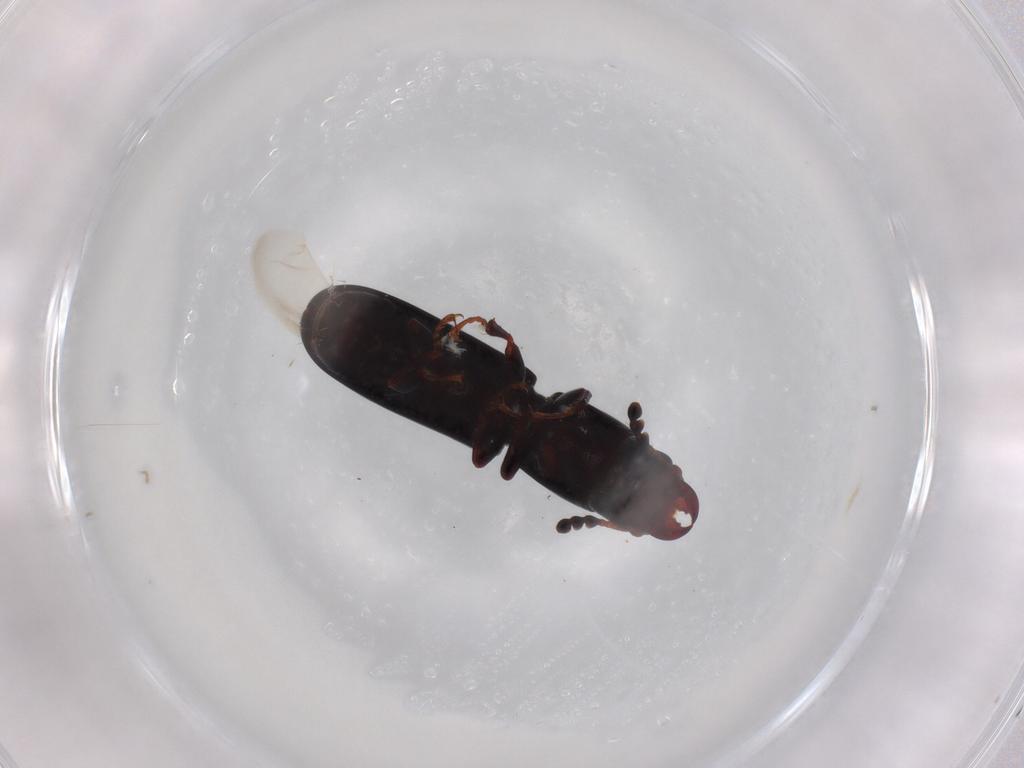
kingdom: Animalia
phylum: Arthropoda
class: Insecta
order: Coleoptera
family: Curculionidae
